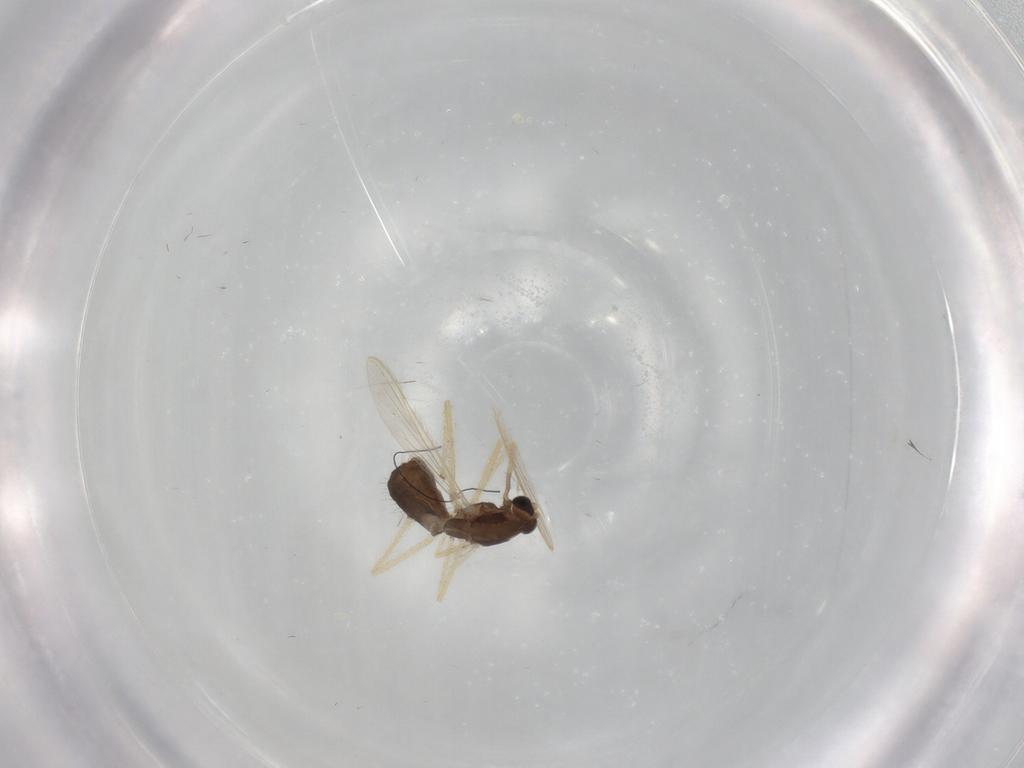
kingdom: Animalia
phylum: Arthropoda
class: Insecta
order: Diptera
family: Chironomidae
